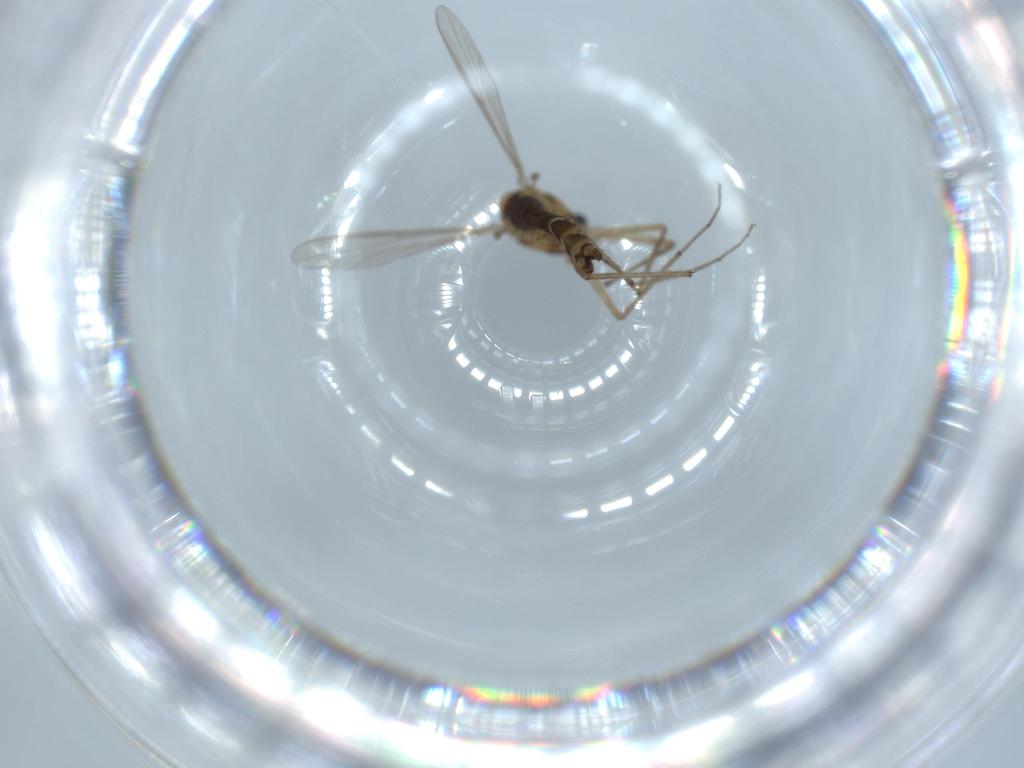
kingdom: Animalia
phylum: Arthropoda
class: Insecta
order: Diptera
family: Chironomidae
